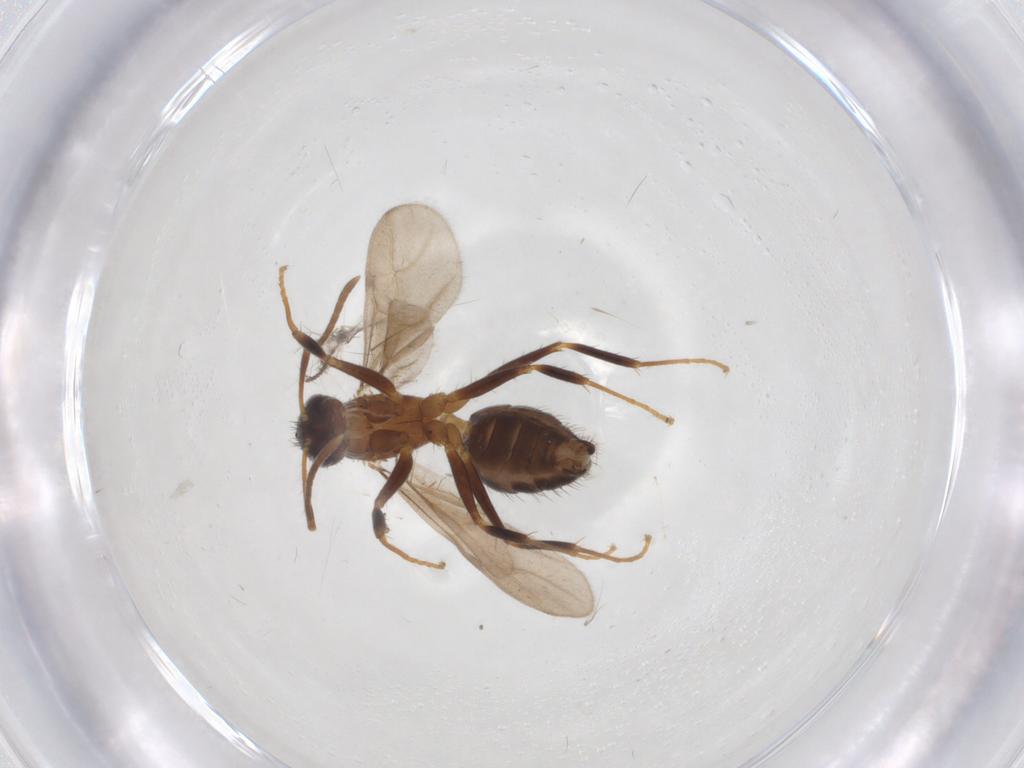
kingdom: Animalia
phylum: Arthropoda
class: Insecta
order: Hymenoptera
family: Formicidae
